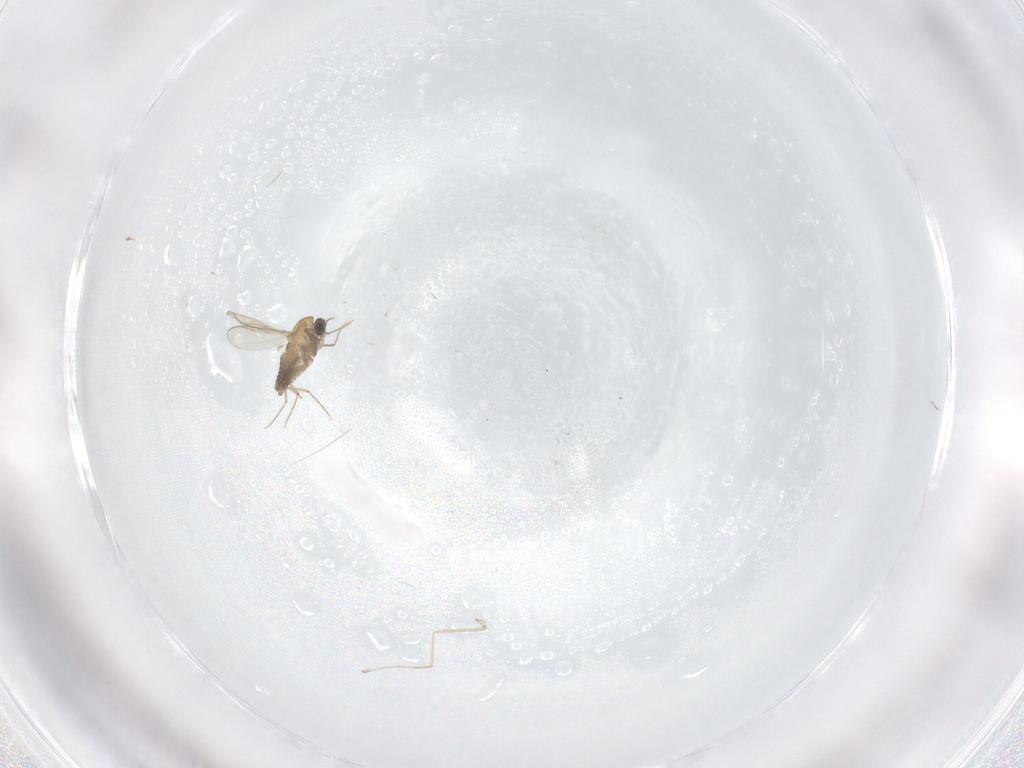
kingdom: Animalia
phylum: Arthropoda
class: Insecta
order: Diptera
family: Chironomidae
